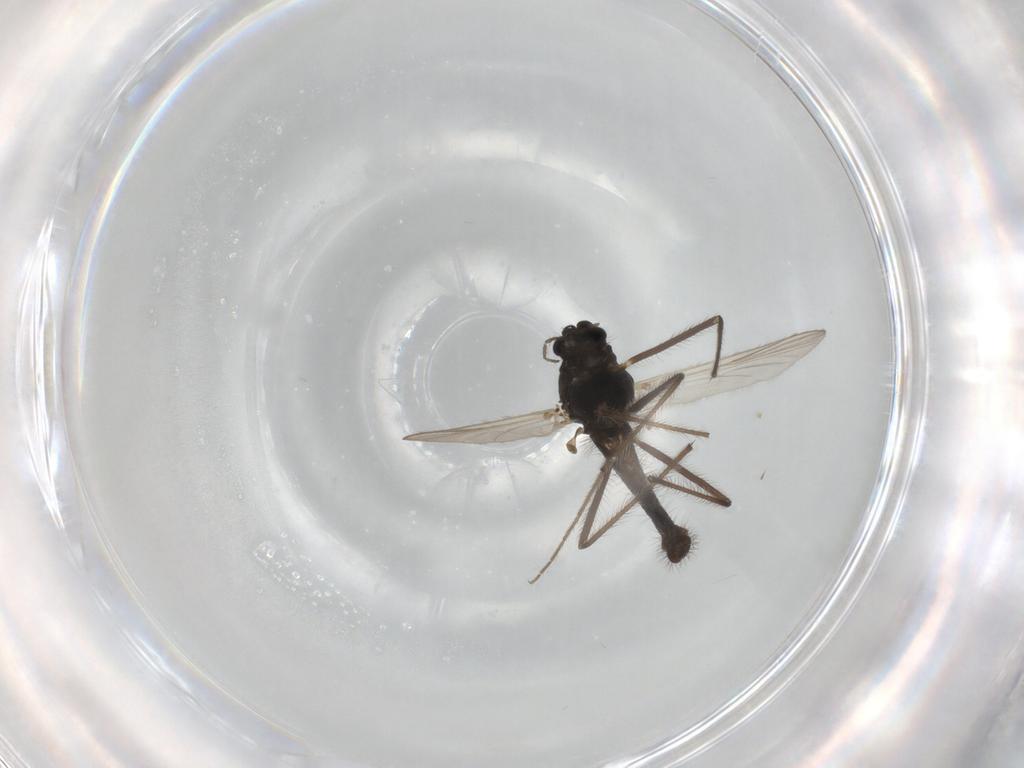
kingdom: Animalia
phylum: Arthropoda
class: Insecta
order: Diptera
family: Chironomidae
